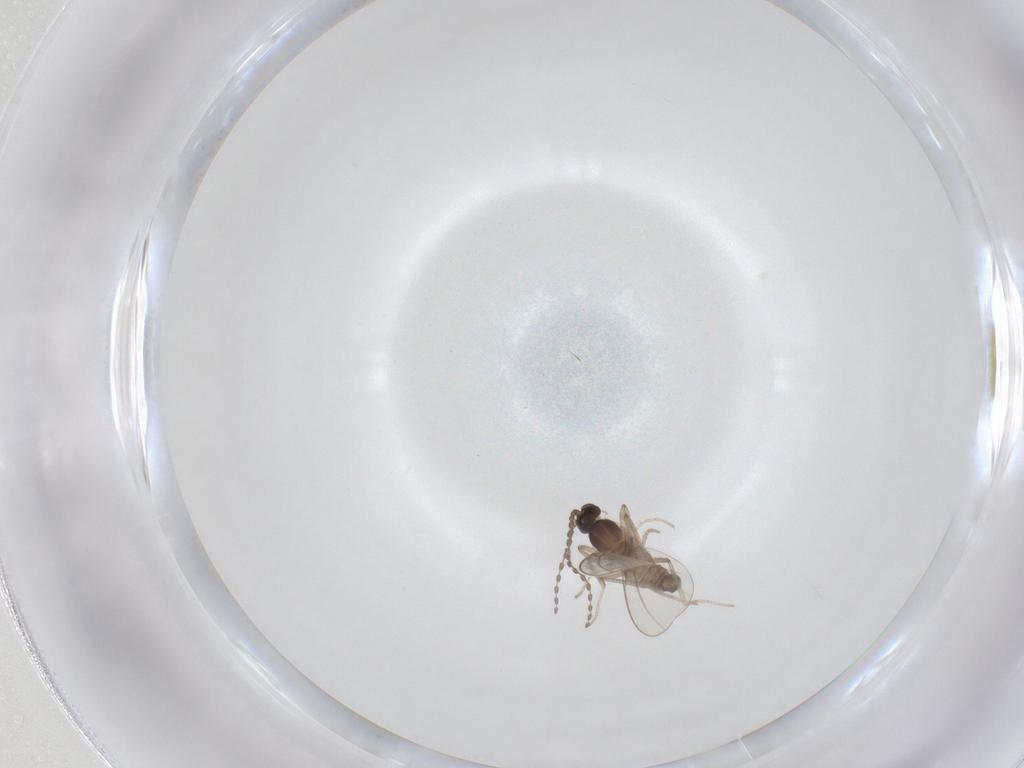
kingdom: Animalia
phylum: Arthropoda
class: Insecta
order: Diptera
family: Cecidomyiidae
